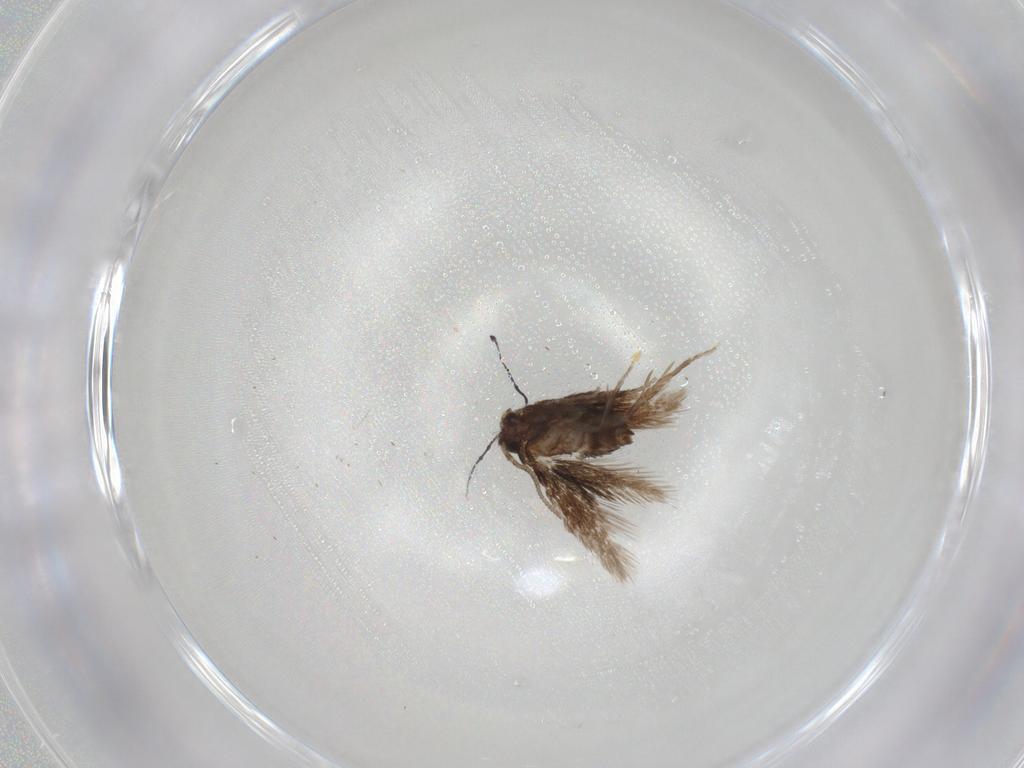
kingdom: Animalia
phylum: Arthropoda
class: Insecta
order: Lepidoptera
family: Nepticulidae
